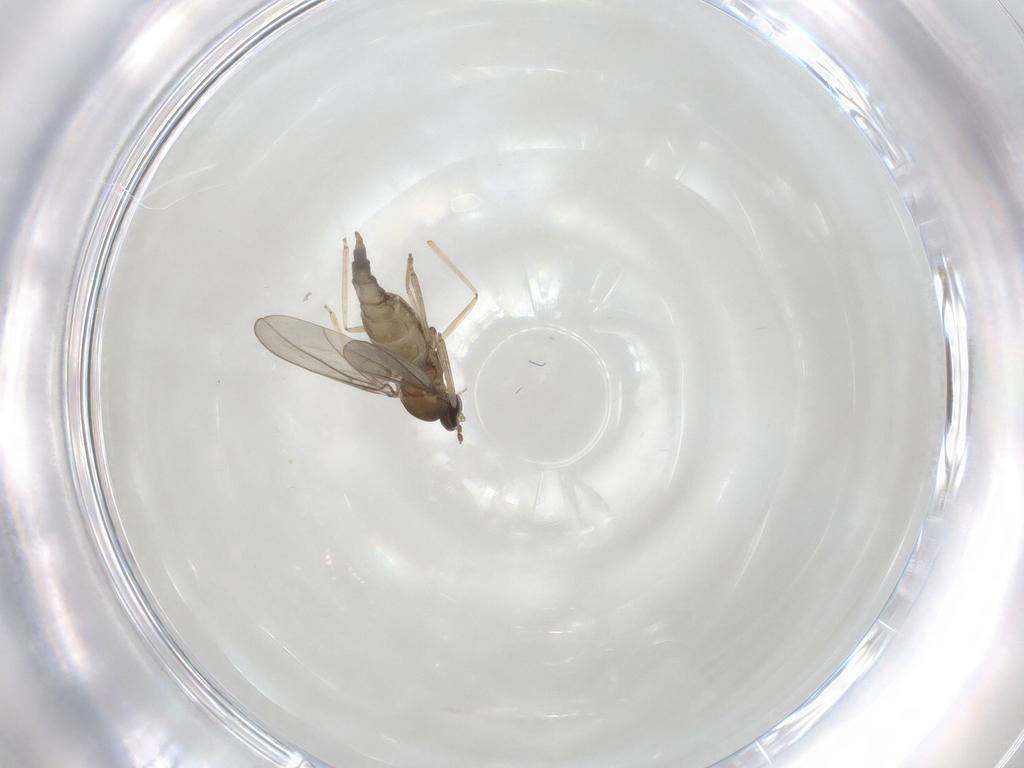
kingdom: Animalia
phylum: Arthropoda
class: Insecta
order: Diptera
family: Cecidomyiidae
